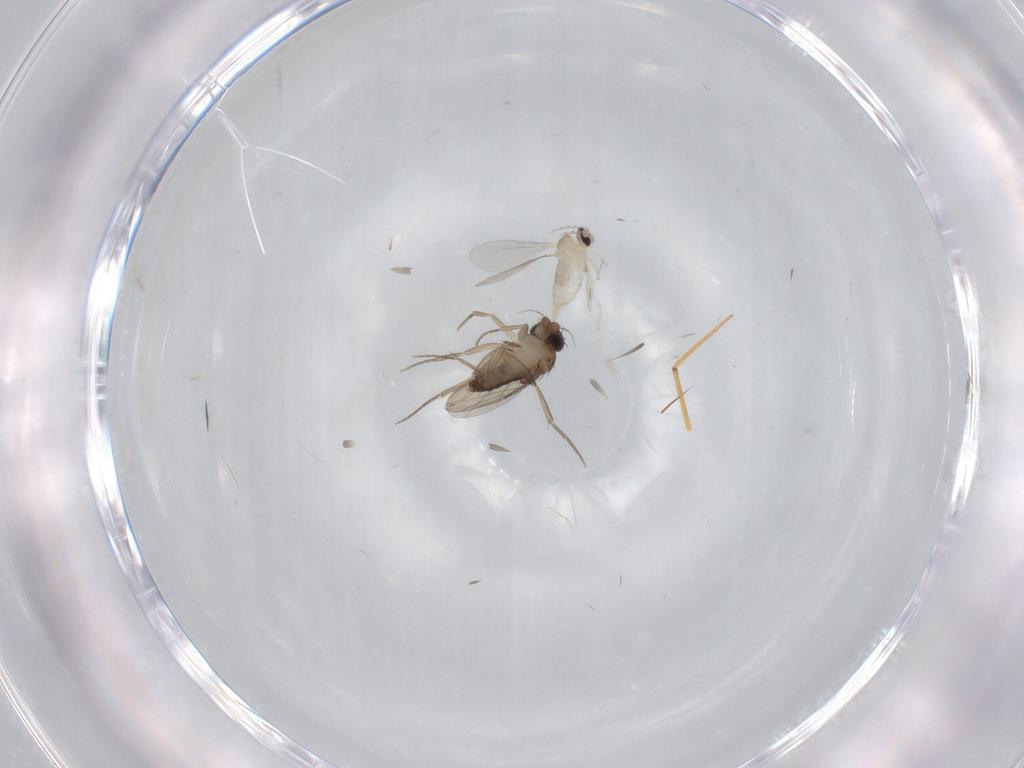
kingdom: Animalia
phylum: Arthropoda
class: Insecta
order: Diptera
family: Phoridae
